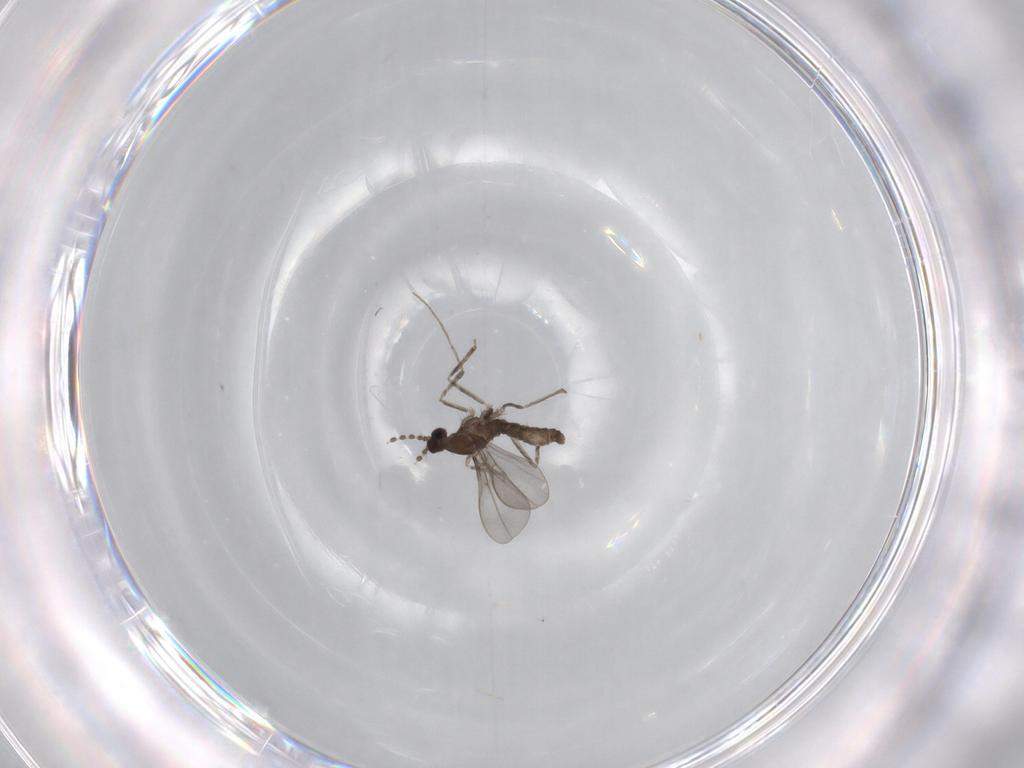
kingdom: Animalia
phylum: Arthropoda
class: Insecta
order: Diptera
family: Cecidomyiidae
